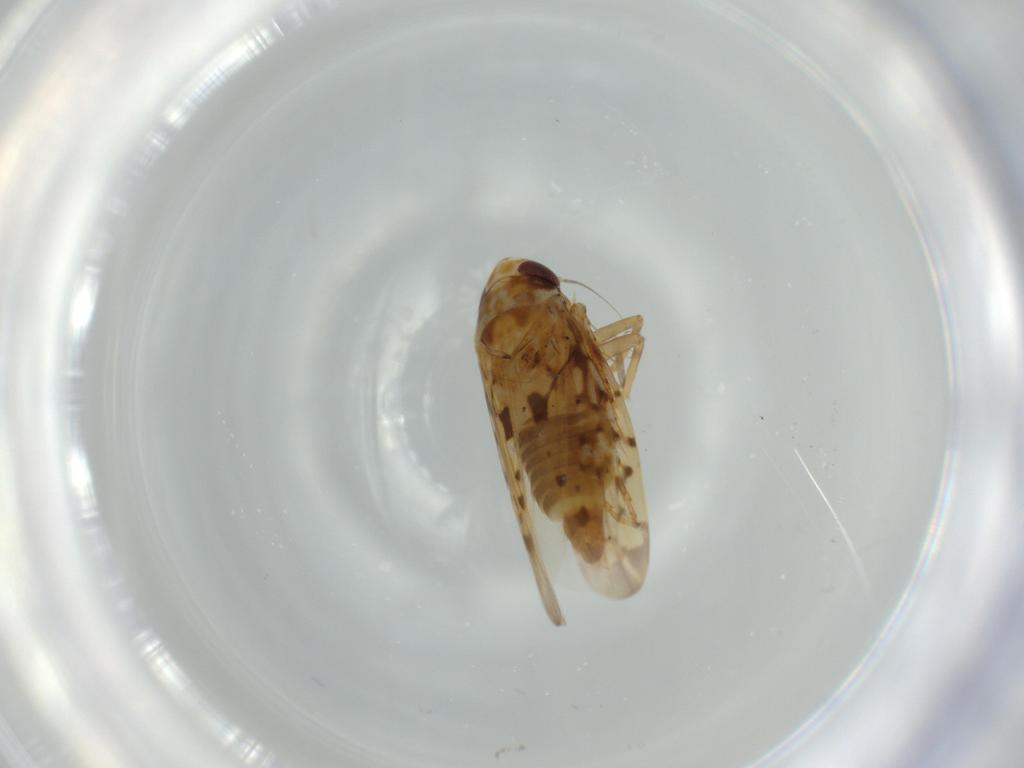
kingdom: Animalia
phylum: Arthropoda
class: Insecta
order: Hemiptera
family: Cicadellidae
